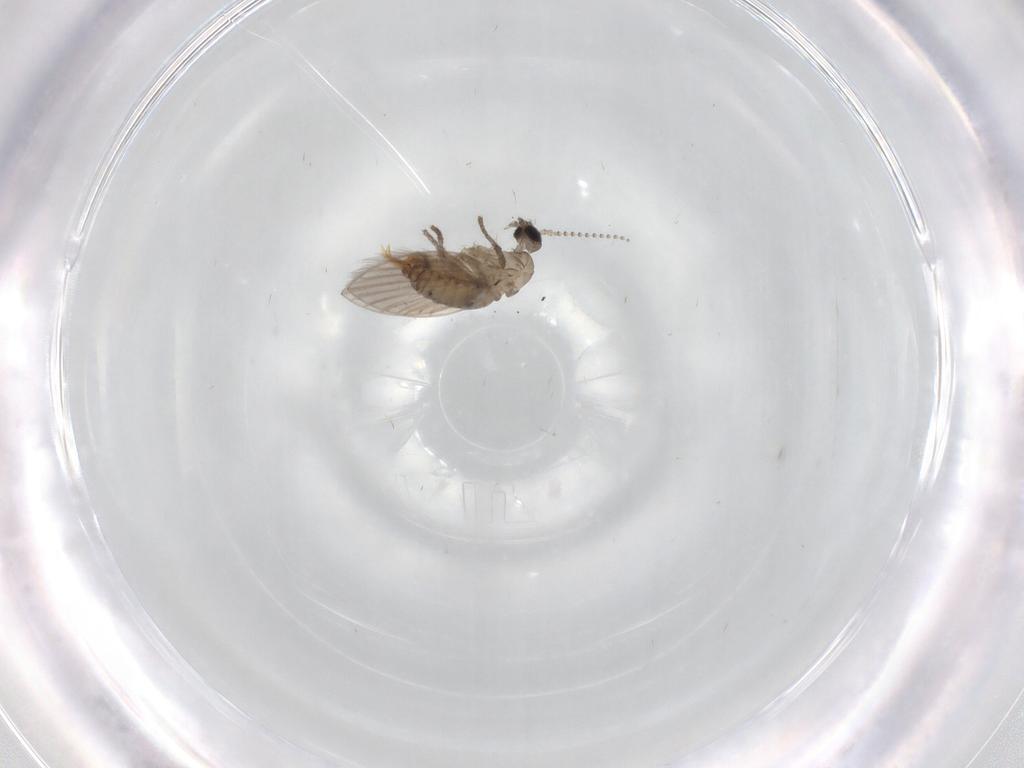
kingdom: Animalia
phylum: Arthropoda
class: Insecta
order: Diptera
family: Psychodidae
